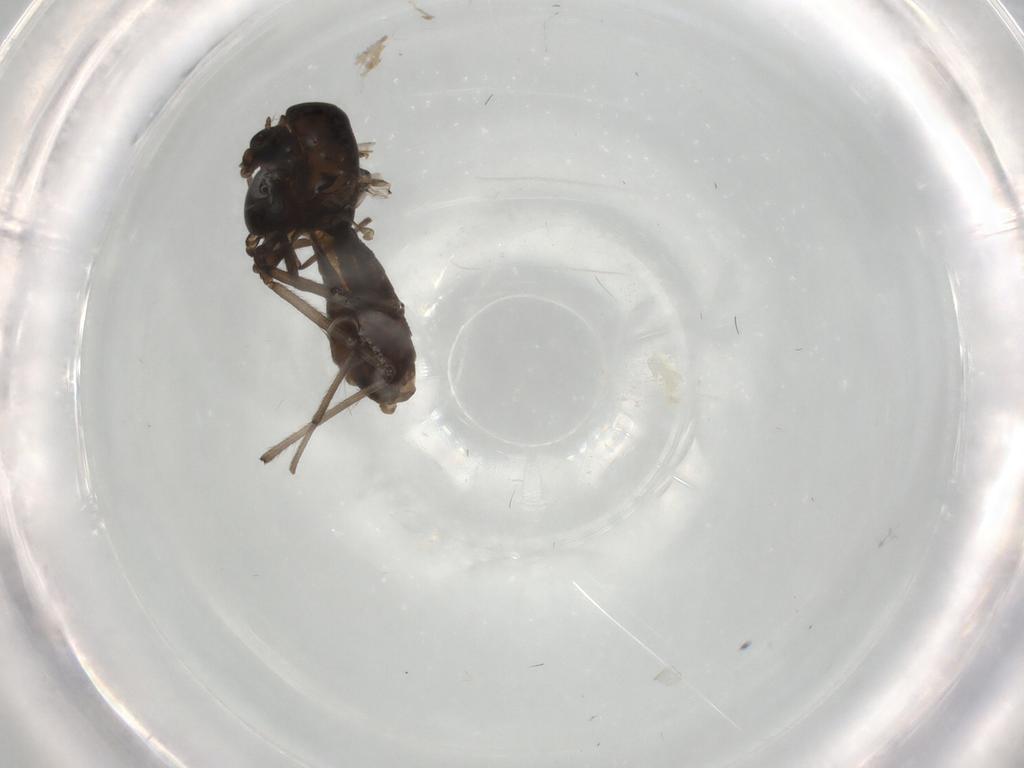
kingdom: Animalia
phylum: Arthropoda
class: Insecta
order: Diptera
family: Chironomidae
